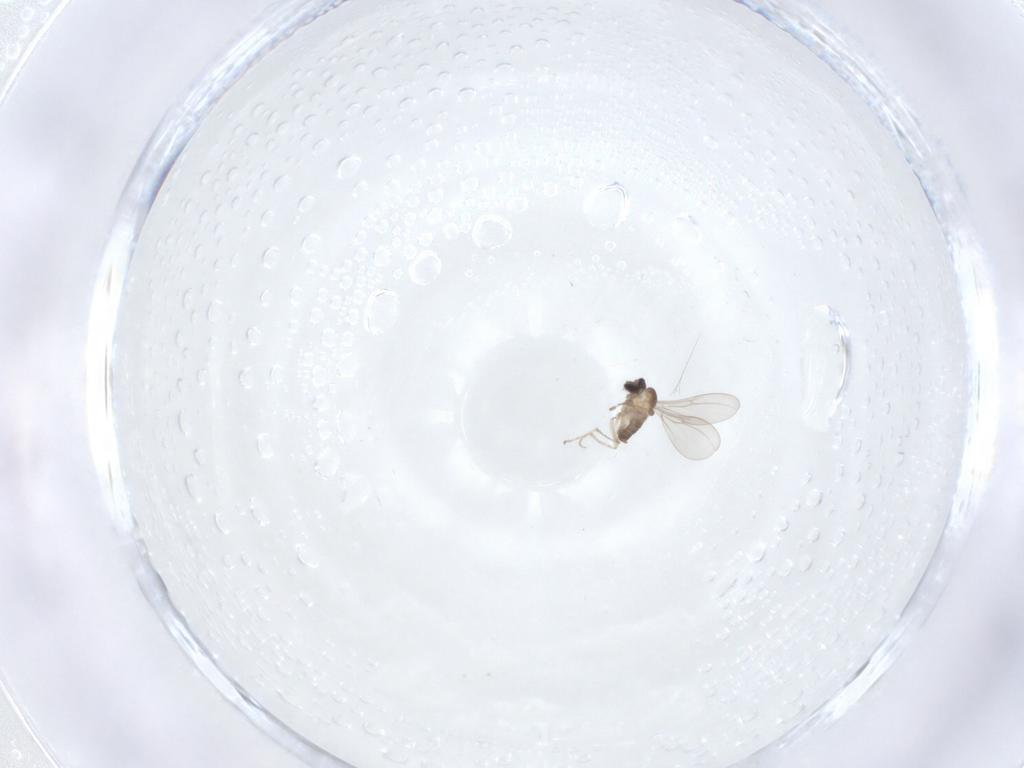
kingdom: Animalia
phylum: Arthropoda
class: Insecta
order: Diptera
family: Cecidomyiidae
